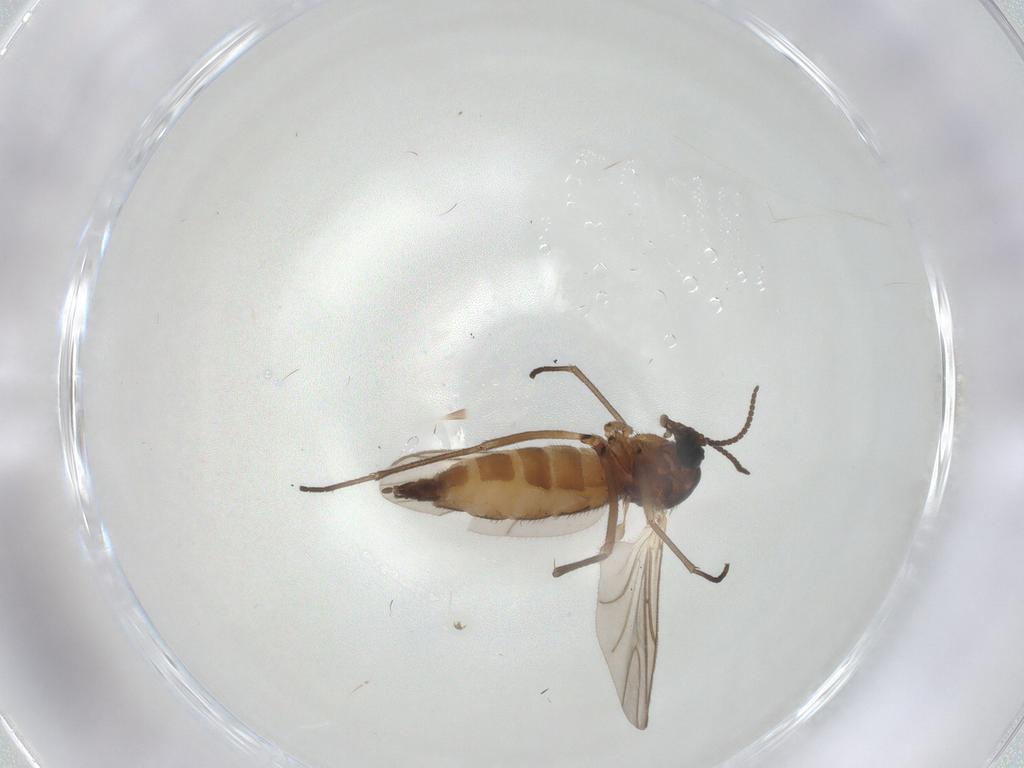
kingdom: Animalia
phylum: Arthropoda
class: Insecta
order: Diptera
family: Sciaridae
